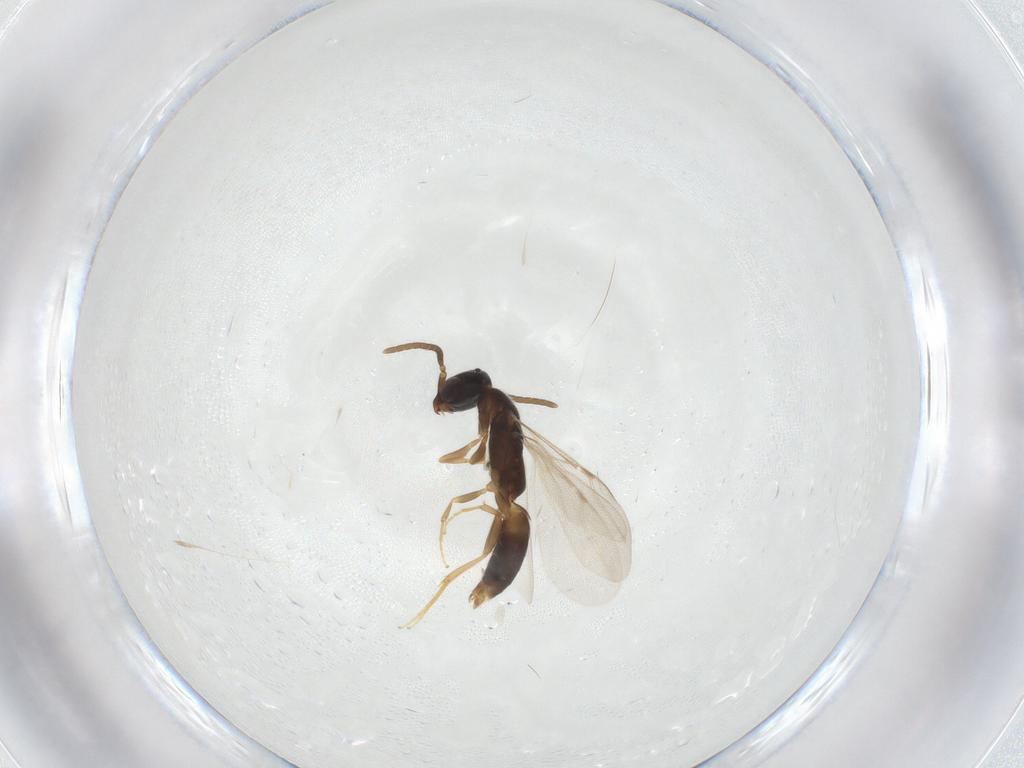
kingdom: Animalia
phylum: Arthropoda
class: Insecta
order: Hymenoptera
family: Bethylidae
